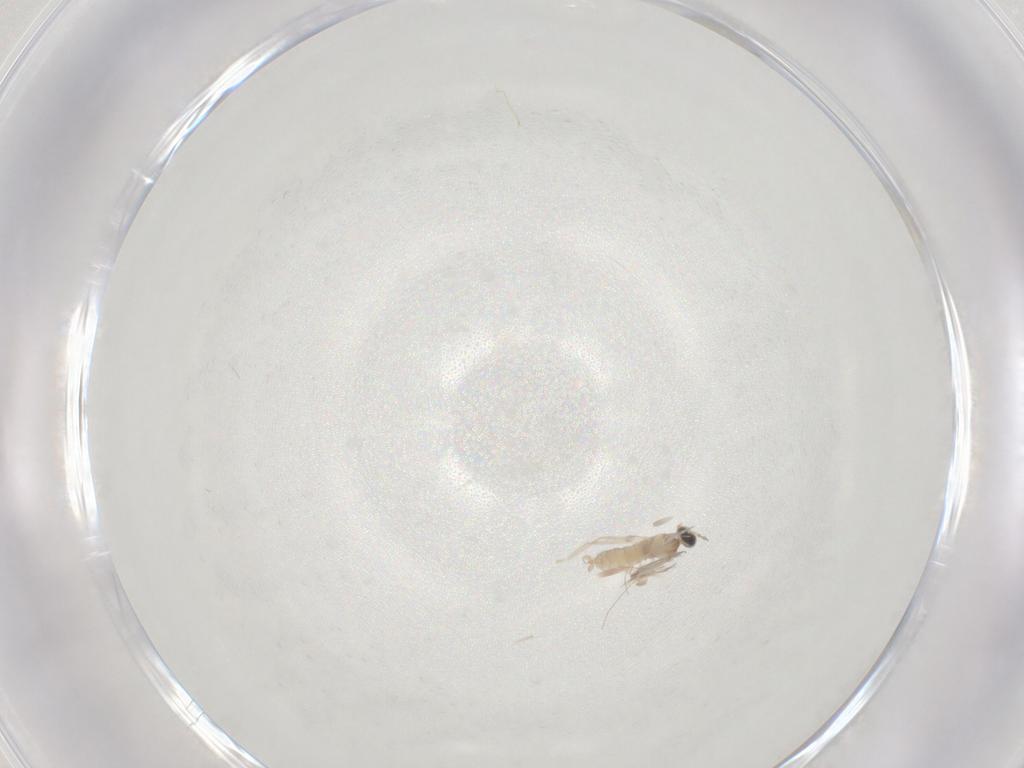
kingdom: Animalia
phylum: Arthropoda
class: Insecta
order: Diptera
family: Cecidomyiidae
